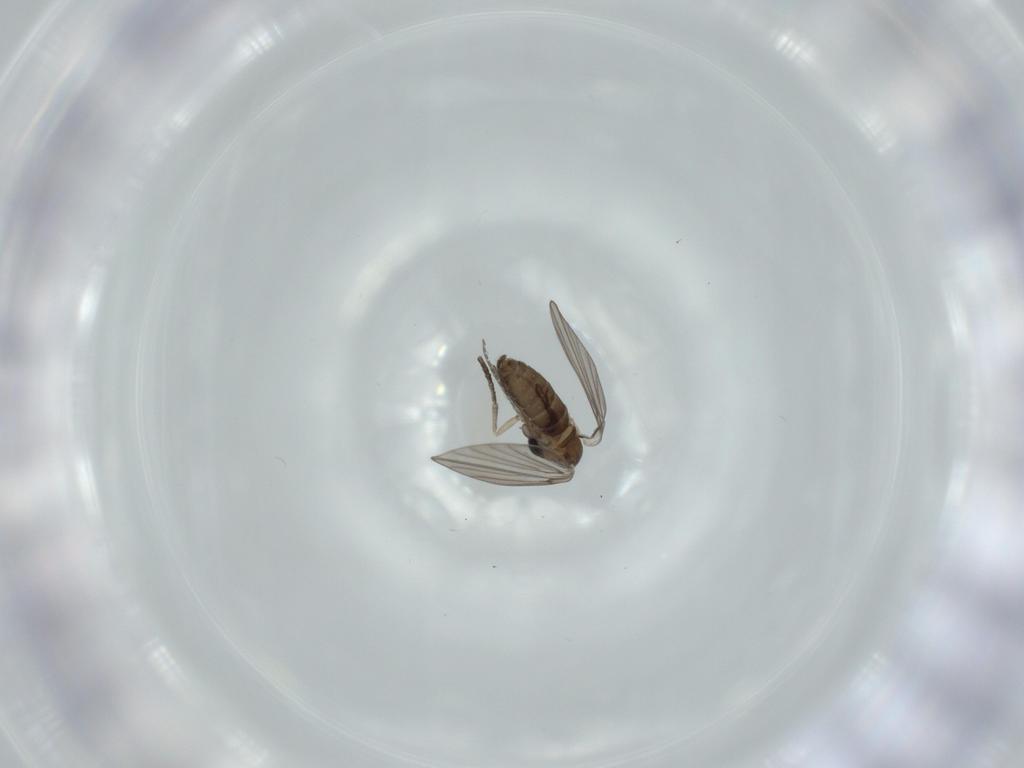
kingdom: Animalia
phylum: Arthropoda
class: Insecta
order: Diptera
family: Psychodidae
